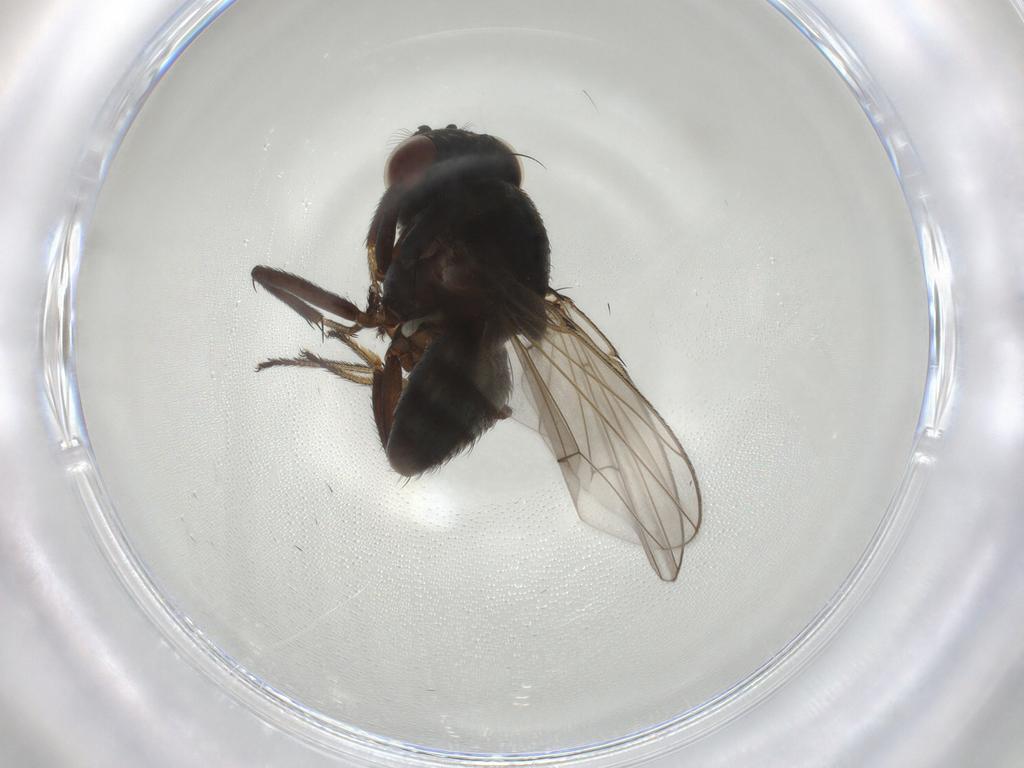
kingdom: Animalia
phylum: Arthropoda
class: Insecta
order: Diptera
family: Ephydridae
